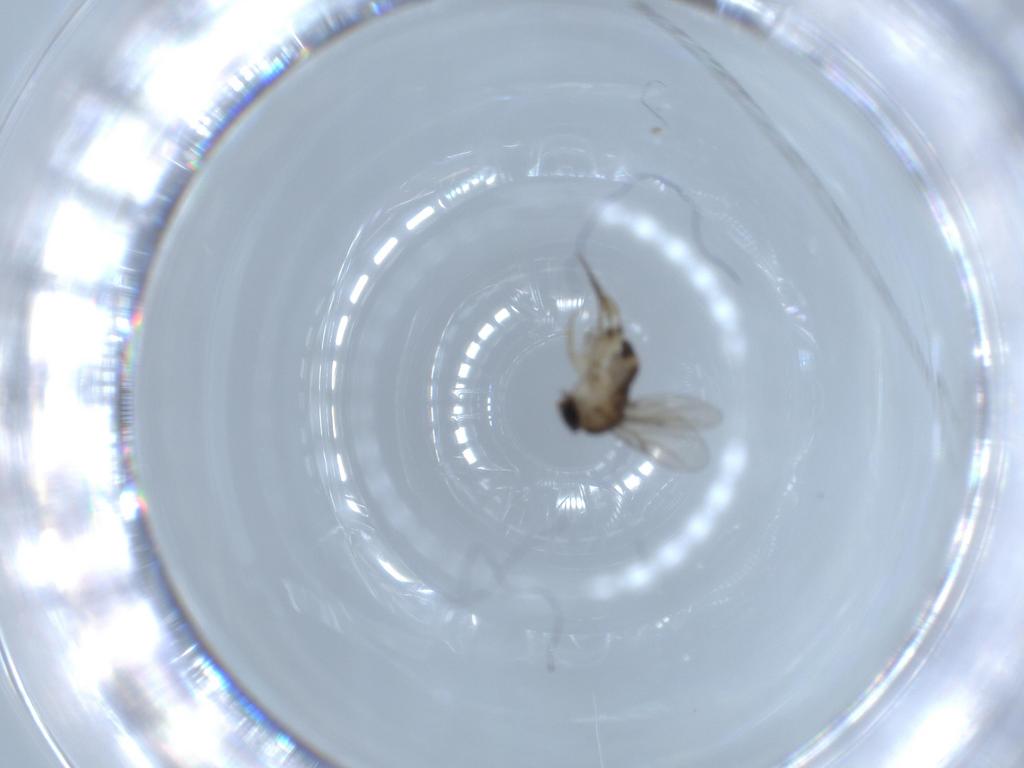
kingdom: Animalia
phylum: Arthropoda
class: Insecta
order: Diptera
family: Phoridae
